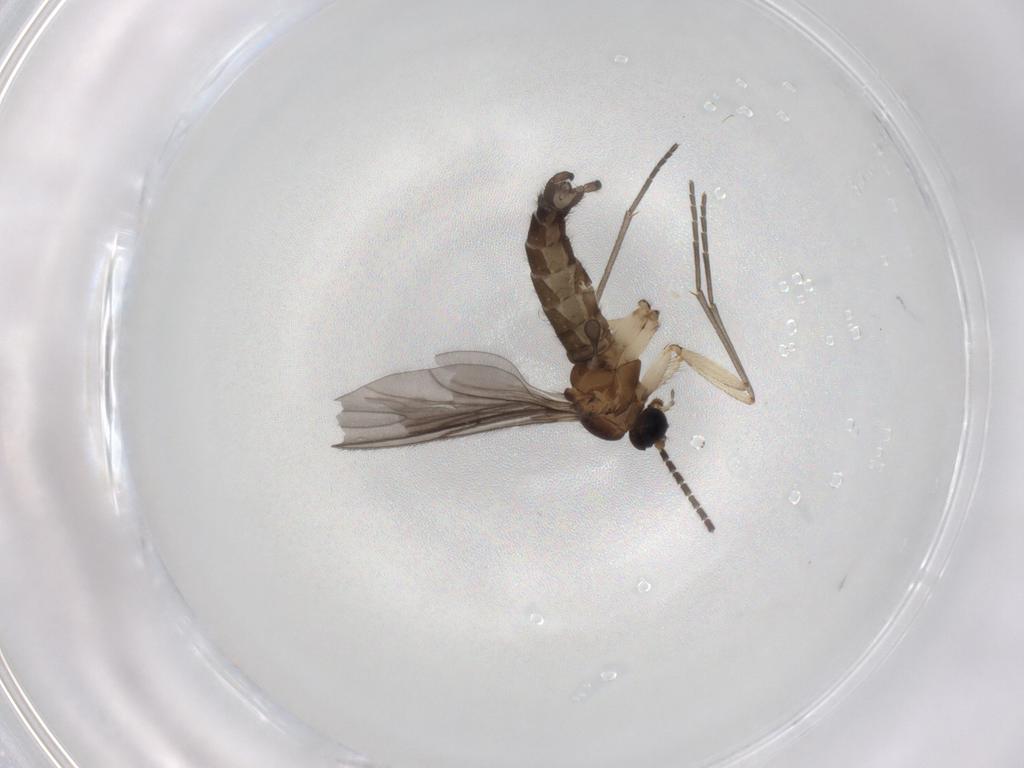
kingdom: Animalia
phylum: Arthropoda
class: Insecta
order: Diptera
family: Sciaridae
